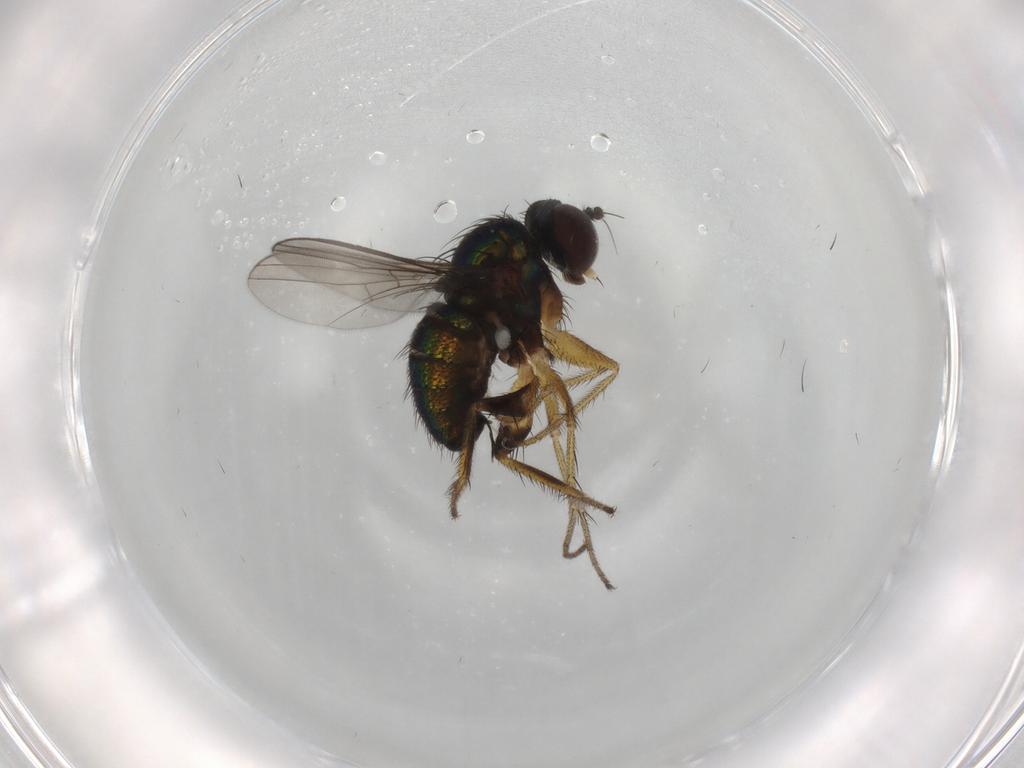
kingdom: Animalia
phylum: Arthropoda
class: Insecta
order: Diptera
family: Dolichopodidae
